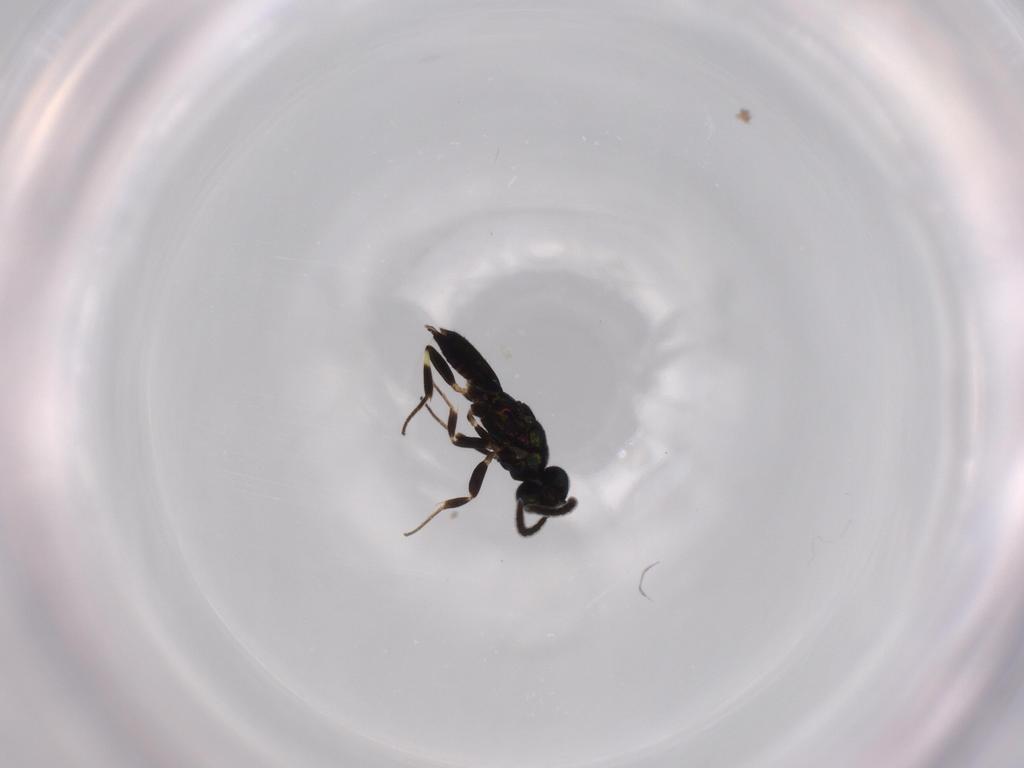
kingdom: Animalia
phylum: Arthropoda
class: Insecta
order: Hymenoptera
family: Eupelmidae
